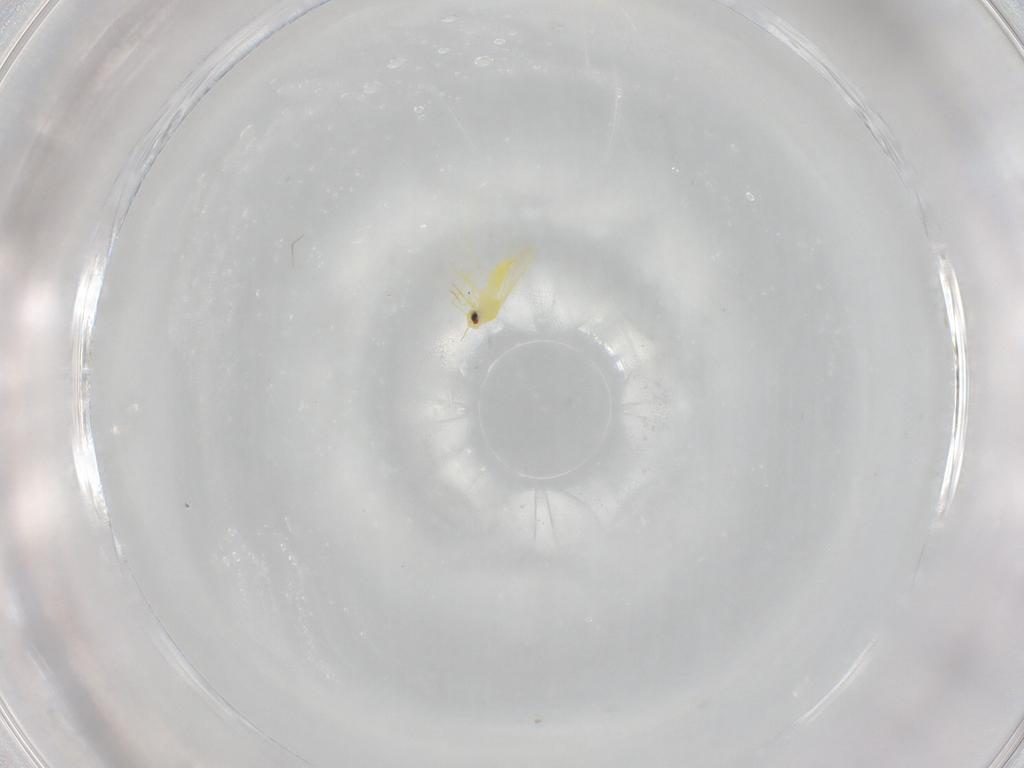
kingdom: Animalia
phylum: Arthropoda
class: Insecta
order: Hemiptera
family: Aleyrodidae
